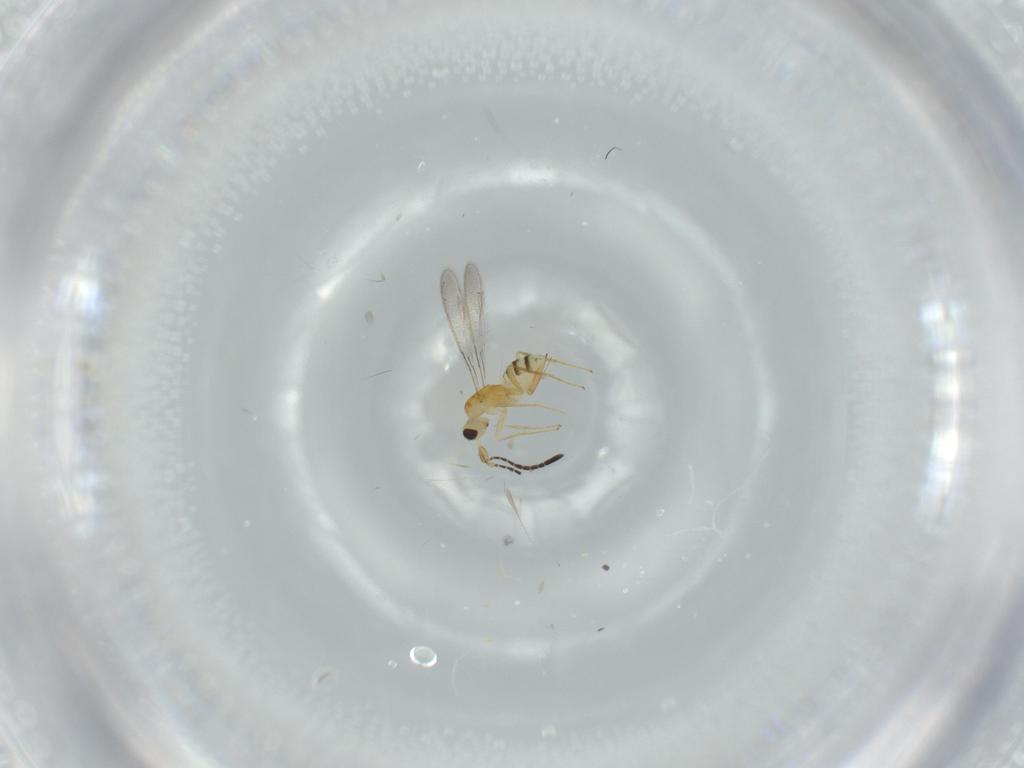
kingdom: Animalia
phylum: Arthropoda
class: Insecta
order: Hymenoptera
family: Mymaridae
